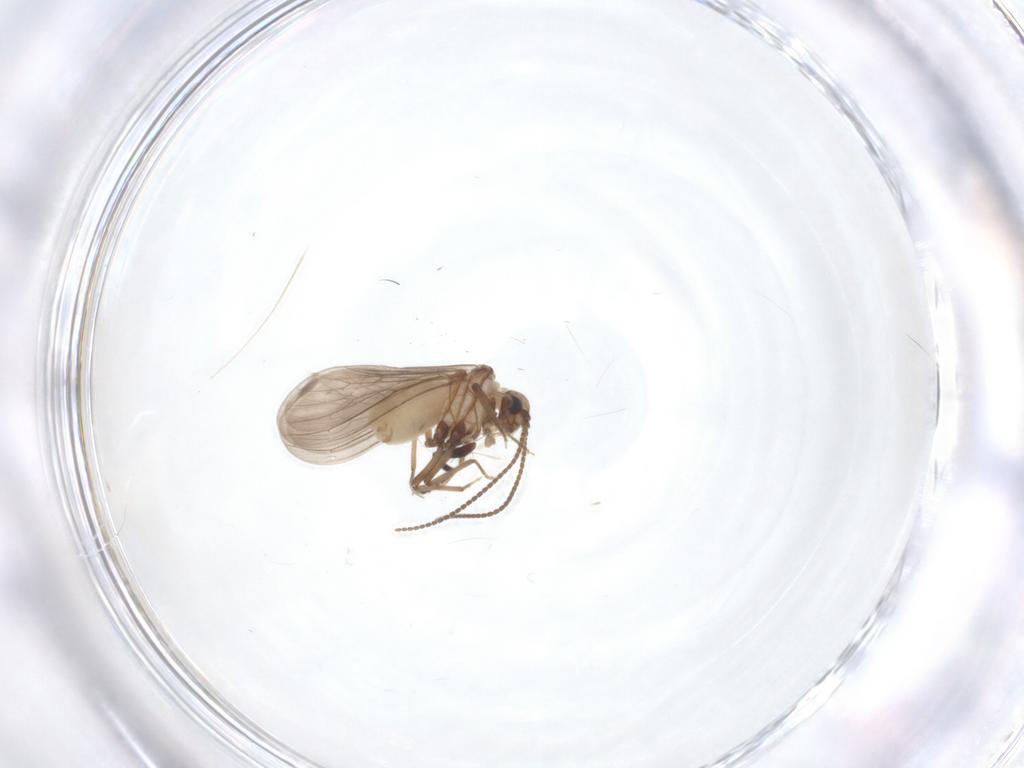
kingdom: Animalia
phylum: Arthropoda
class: Insecta
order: Neuroptera
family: Coniopterygidae
